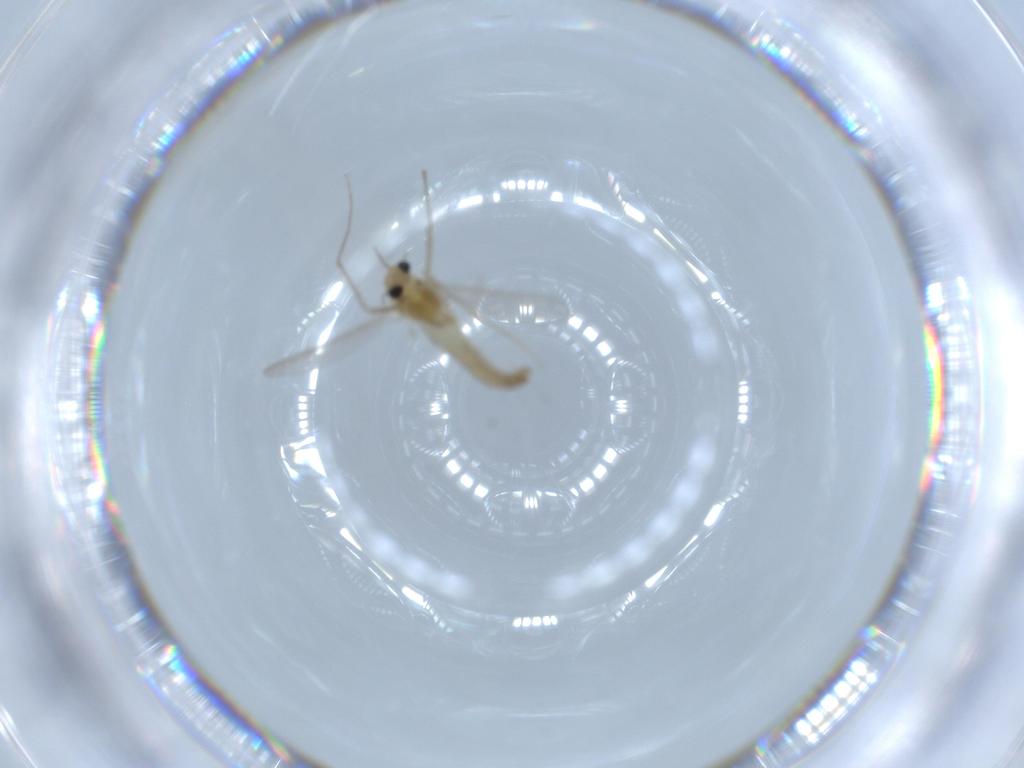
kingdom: Animalia
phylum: Arthropoda
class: Insecta
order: Diptera
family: Chironomidae
